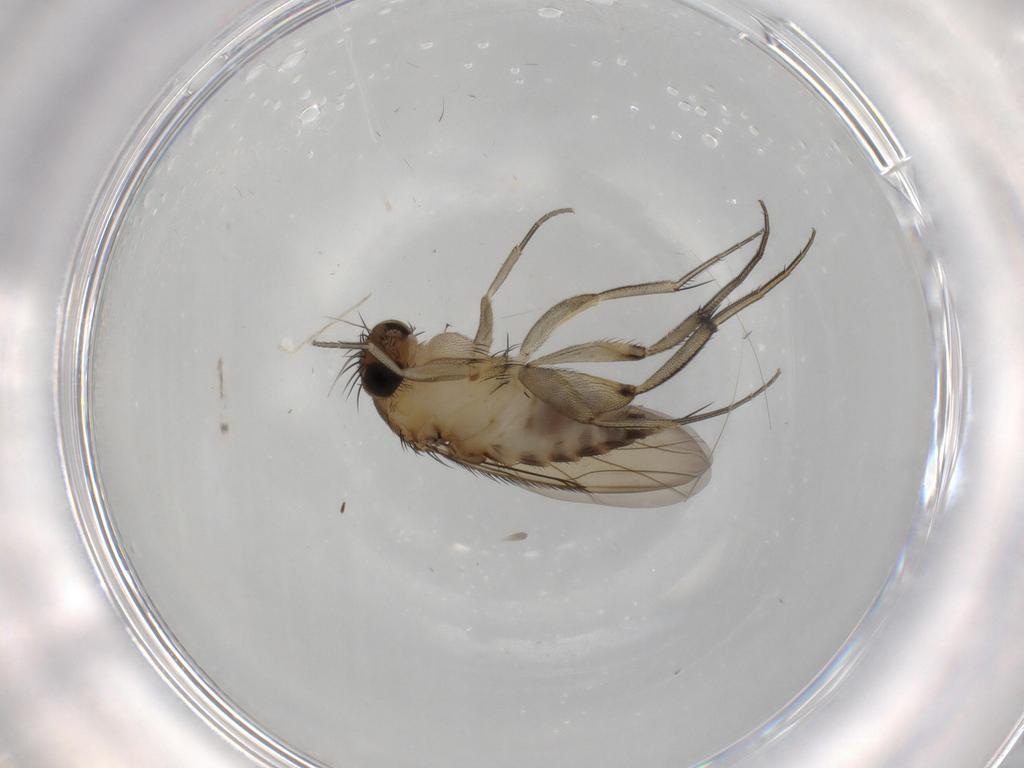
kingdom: Animalia
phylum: Arthropoda
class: Insecta
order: Diptera
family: Phoridae
